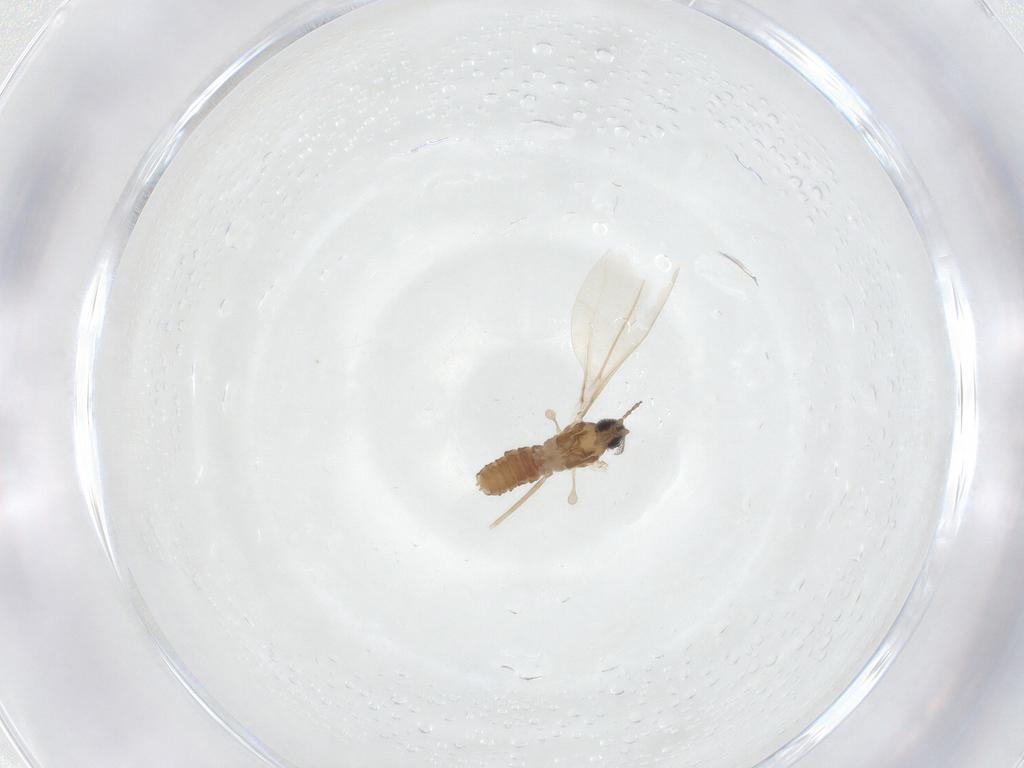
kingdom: Animalia
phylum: Arthropoda
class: Insecta
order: Diptera
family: Cecidomyiidae
